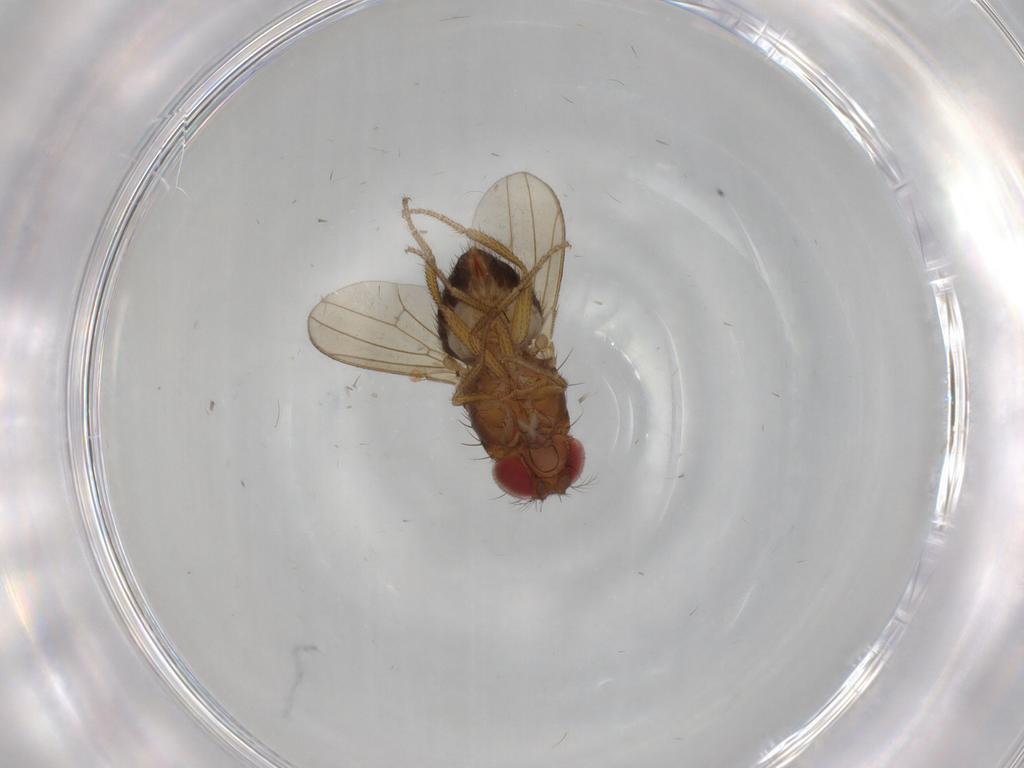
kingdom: Animalia
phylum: Arthropoda
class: Insecta
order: Diptera
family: Drosophilidae
